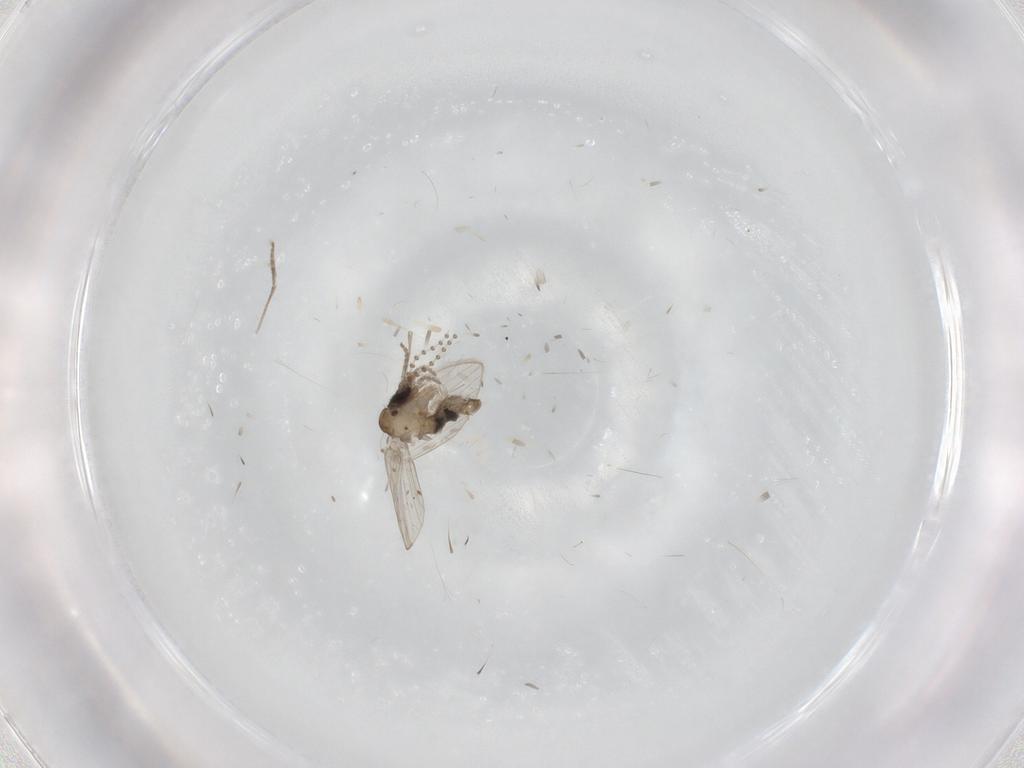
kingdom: Animalia
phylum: Arthropoda
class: Insecta
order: Diptera
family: Psychodidae
